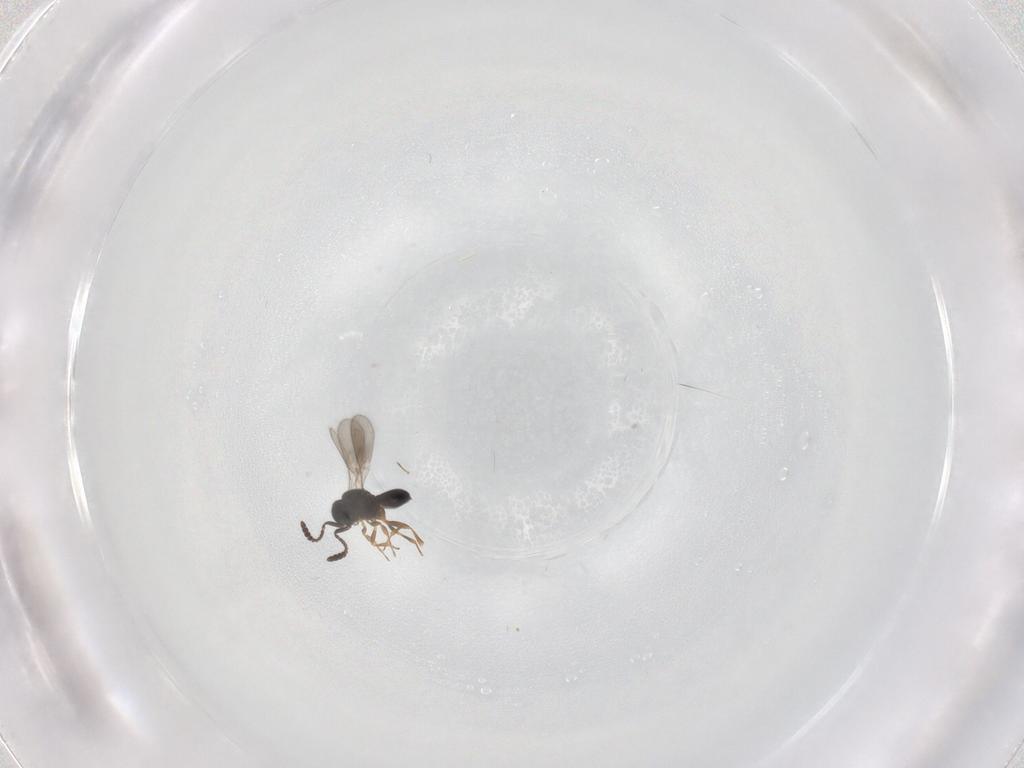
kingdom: Animalia
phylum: Arthropoda
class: Insecta
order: Hymenoptera
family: Scelionidae
